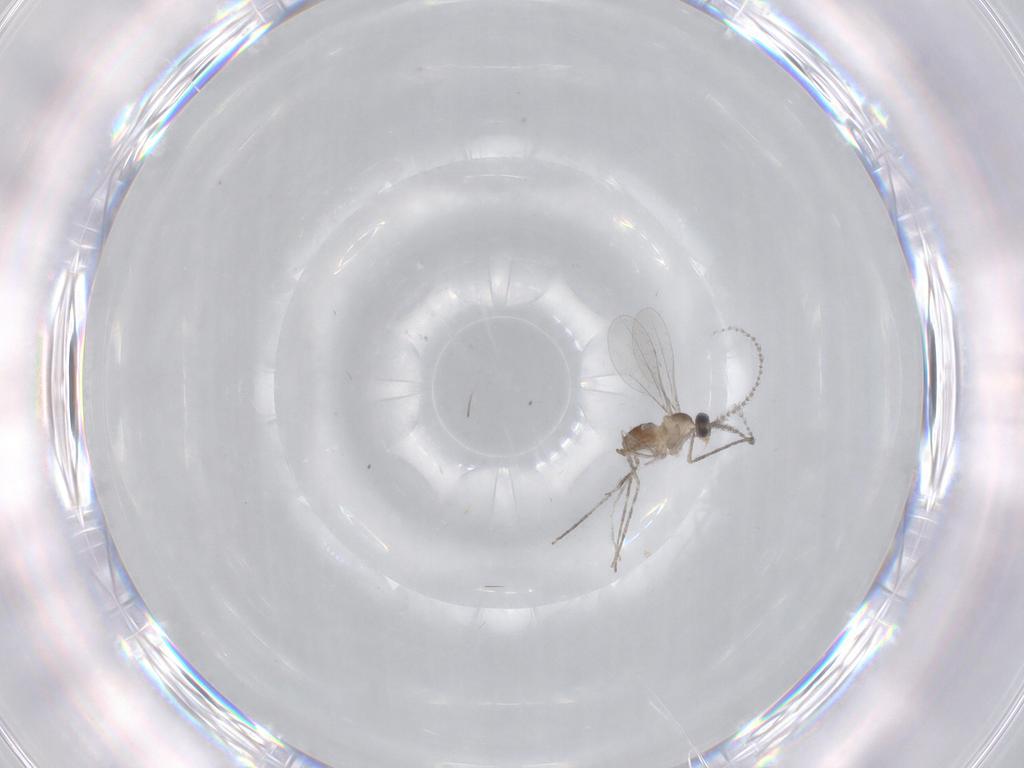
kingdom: Animalia
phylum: Arthropoda
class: Insecta
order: Diptera
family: Cecidomyiidae
